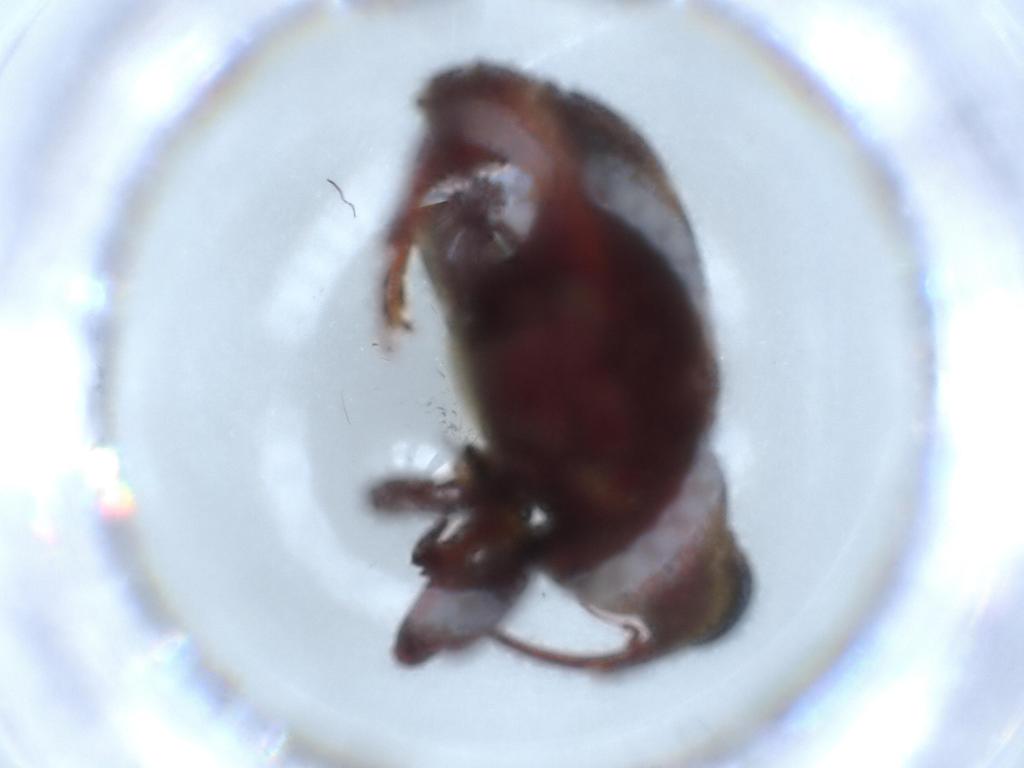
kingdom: Animalia
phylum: Arthropoda
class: Insecta
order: Coleoptera
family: Curculionidae
